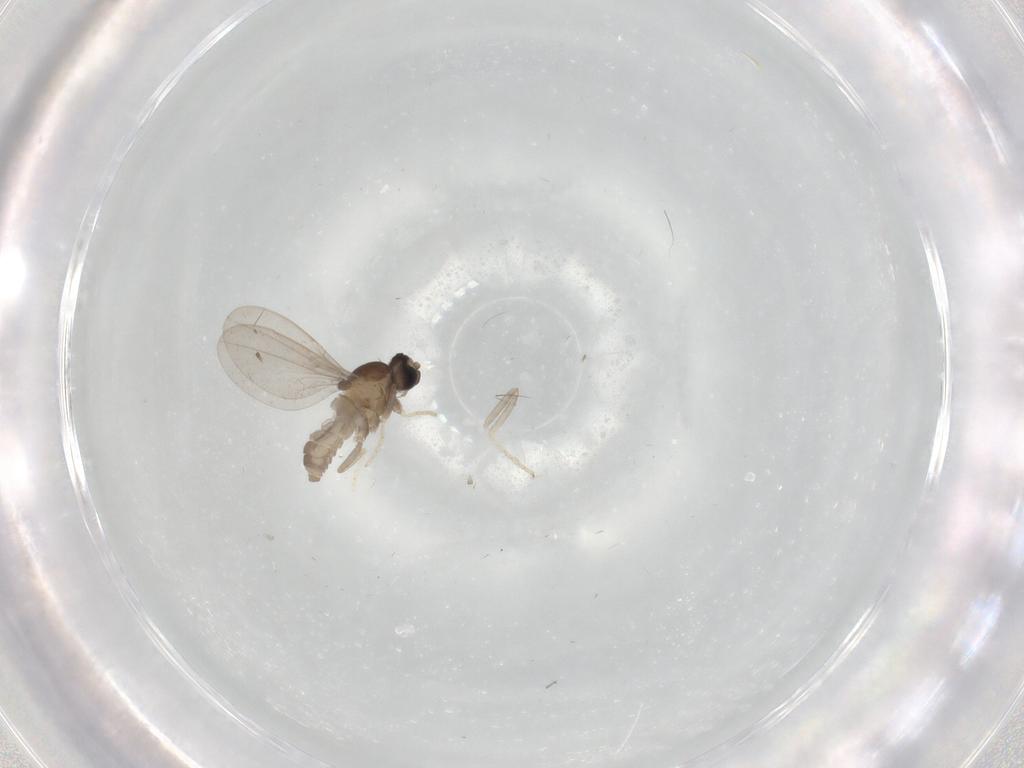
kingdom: Animalia
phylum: Arthropoda
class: Insecta
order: Diptera
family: Cecidomyiidae
